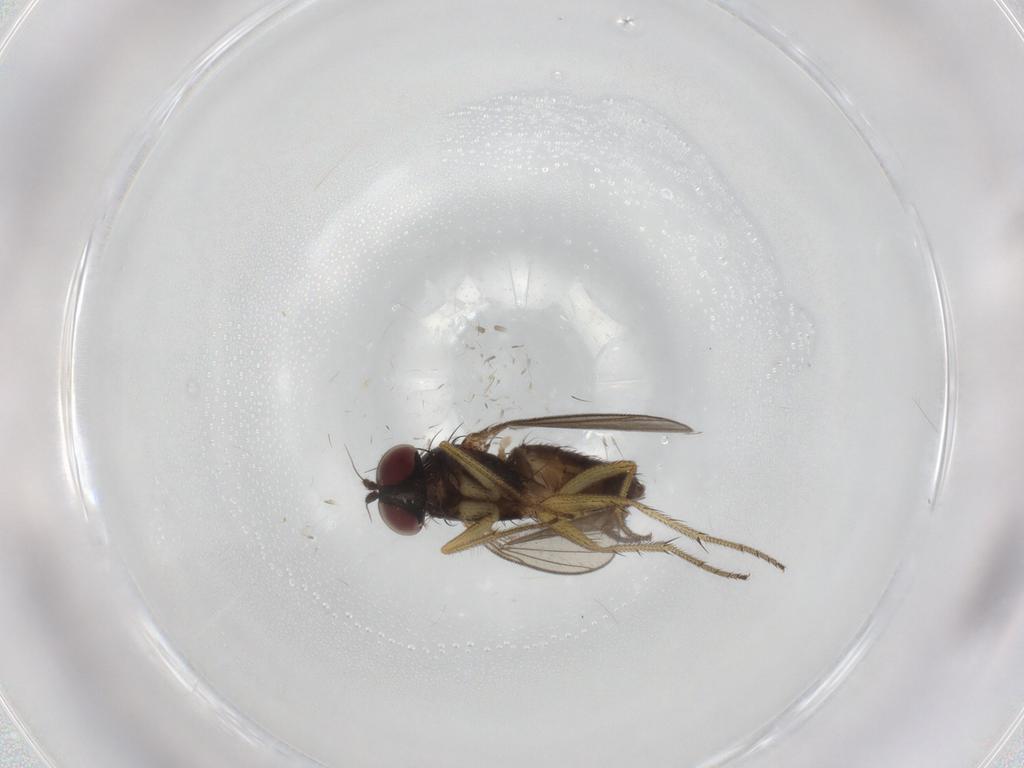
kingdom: Animalia
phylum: Arthropoda
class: Insecta
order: Diptera
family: Dolichopodidae
